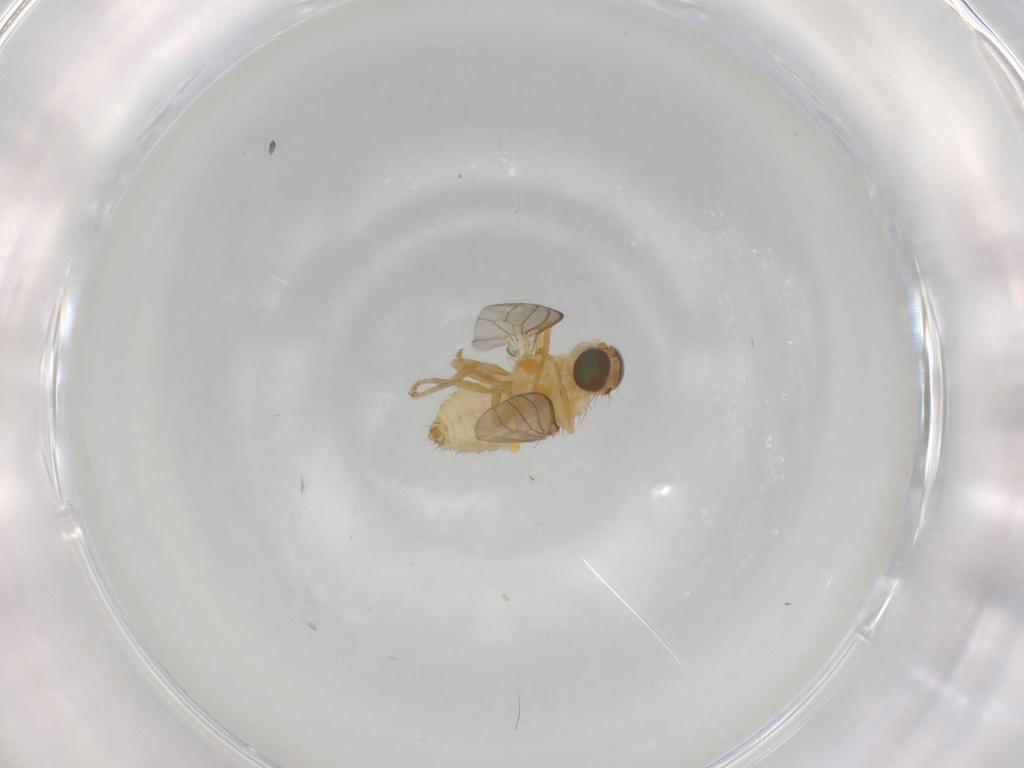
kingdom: Animalia
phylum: Arthropoda
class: Insecta
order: Diptera
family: Chyromyidae
